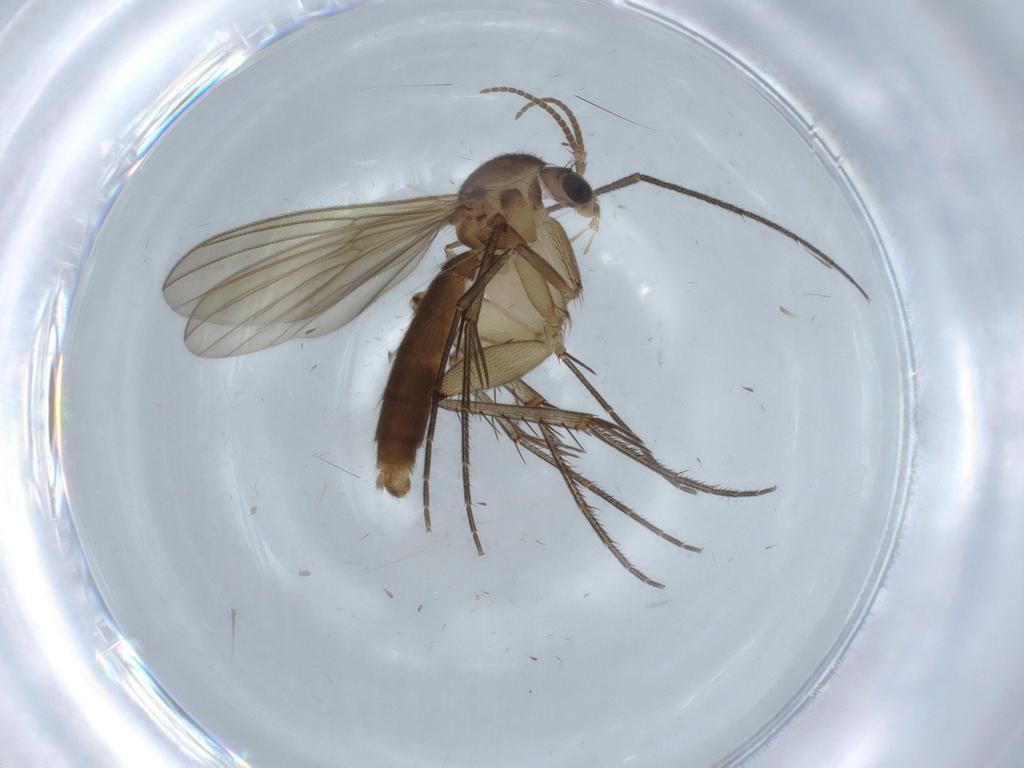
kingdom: Animalia
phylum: Arthropoda
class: Insecta
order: Diptera
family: Ditomyiidae
